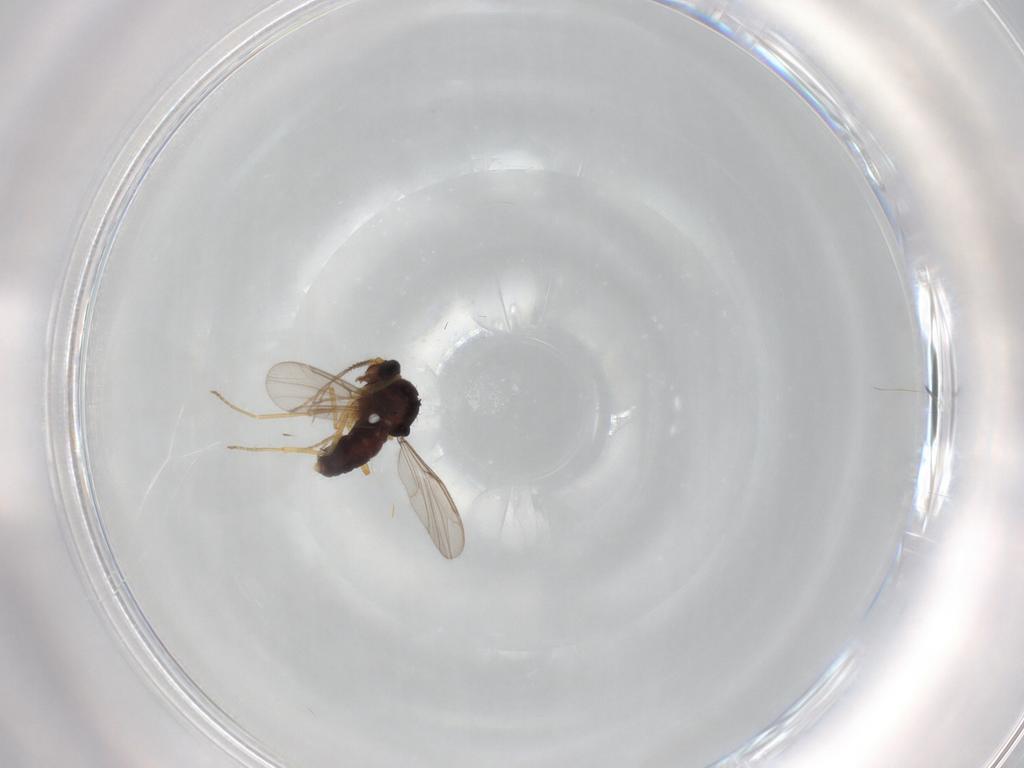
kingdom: Animalia
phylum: Arthropoda
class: Insecta
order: Diptera
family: Ceratopogonidae
